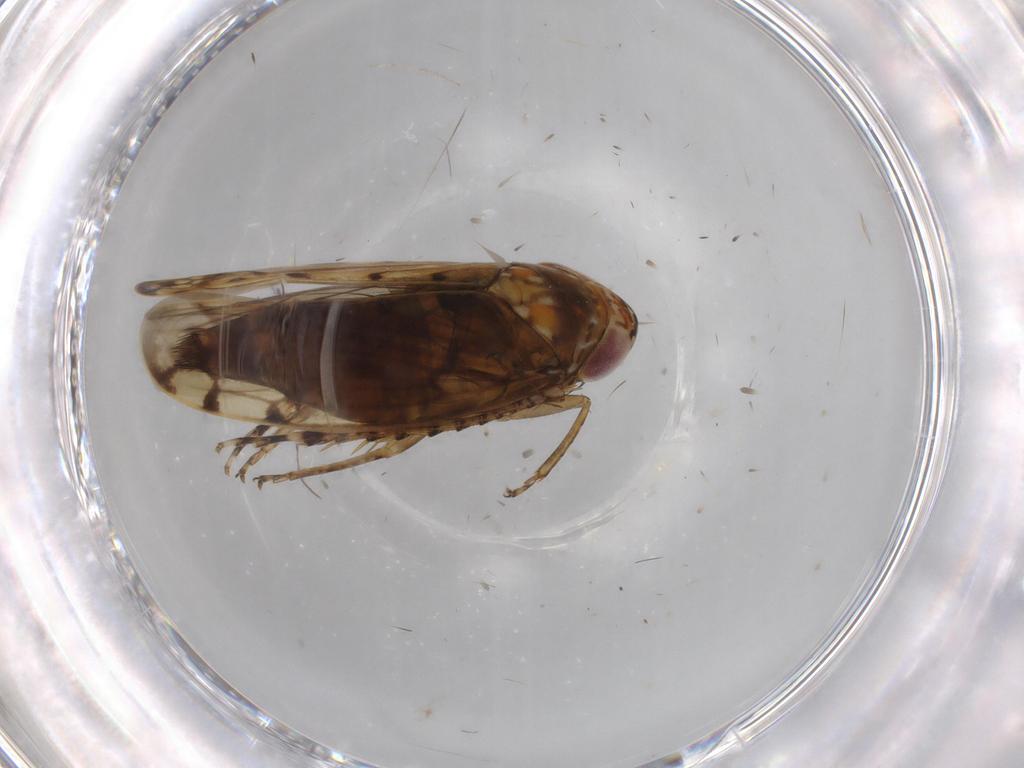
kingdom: Animalia
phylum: Arthropoda
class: Insecta
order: Hemiptera
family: Cicadellidae
